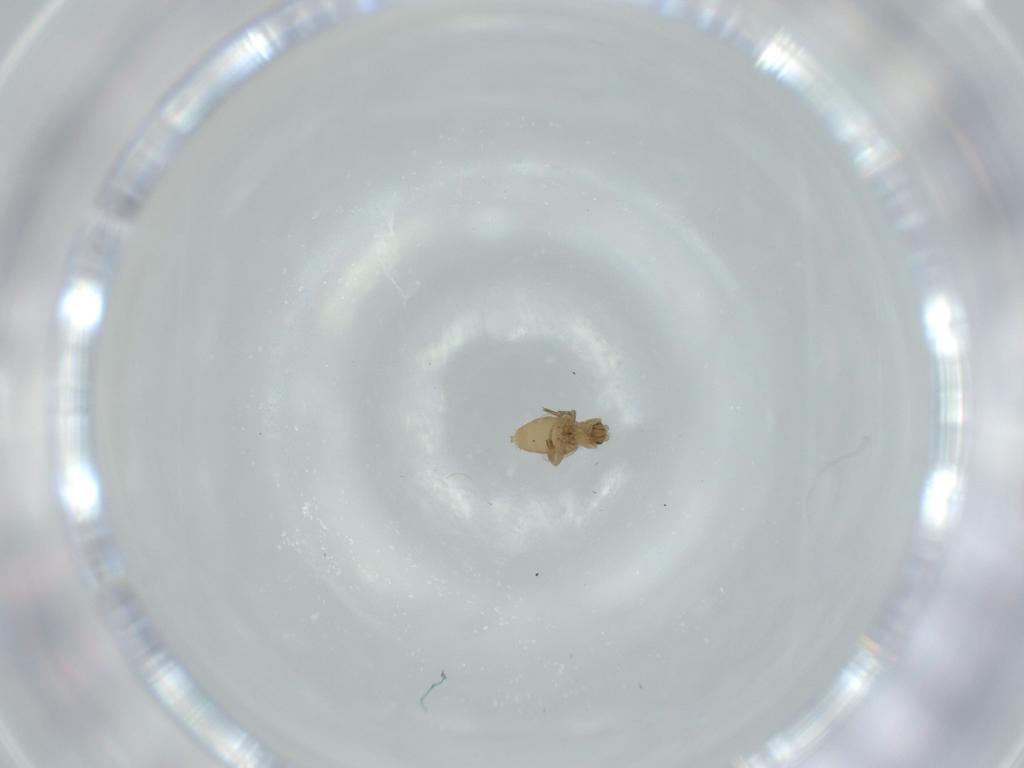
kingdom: Animalia
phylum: Arthropoda
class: Insecta
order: Diptera
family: Phoridae
